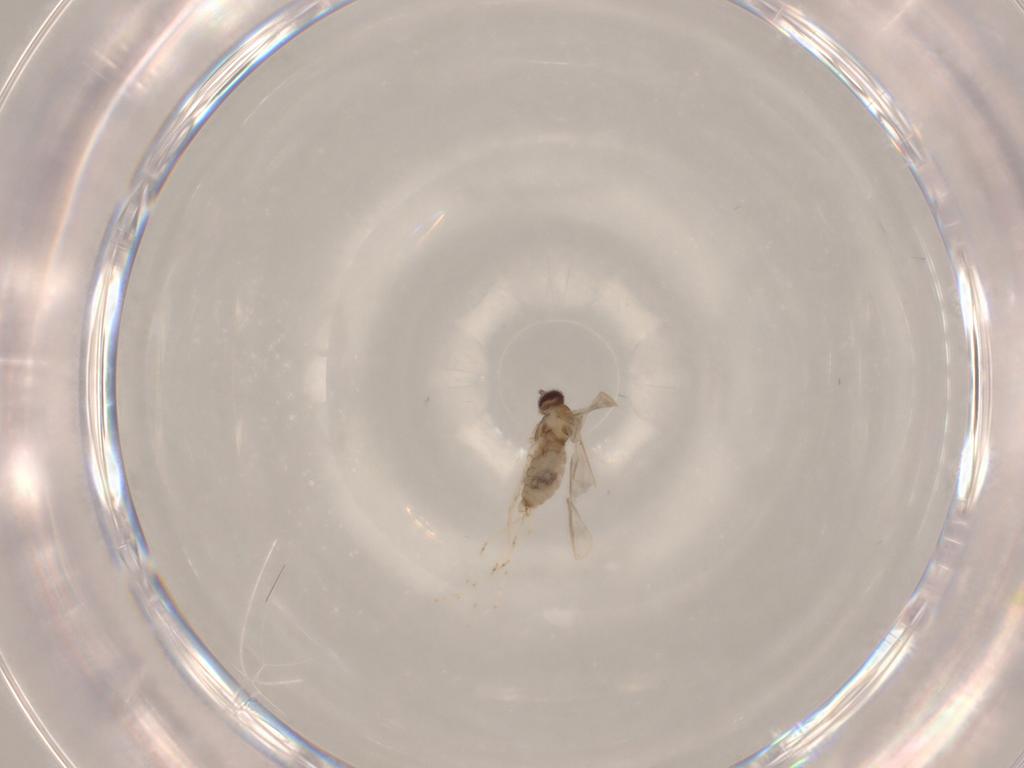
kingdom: Animalia
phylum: Arthropoda
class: Insecta
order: Diptera
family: Cecidomyiidae
